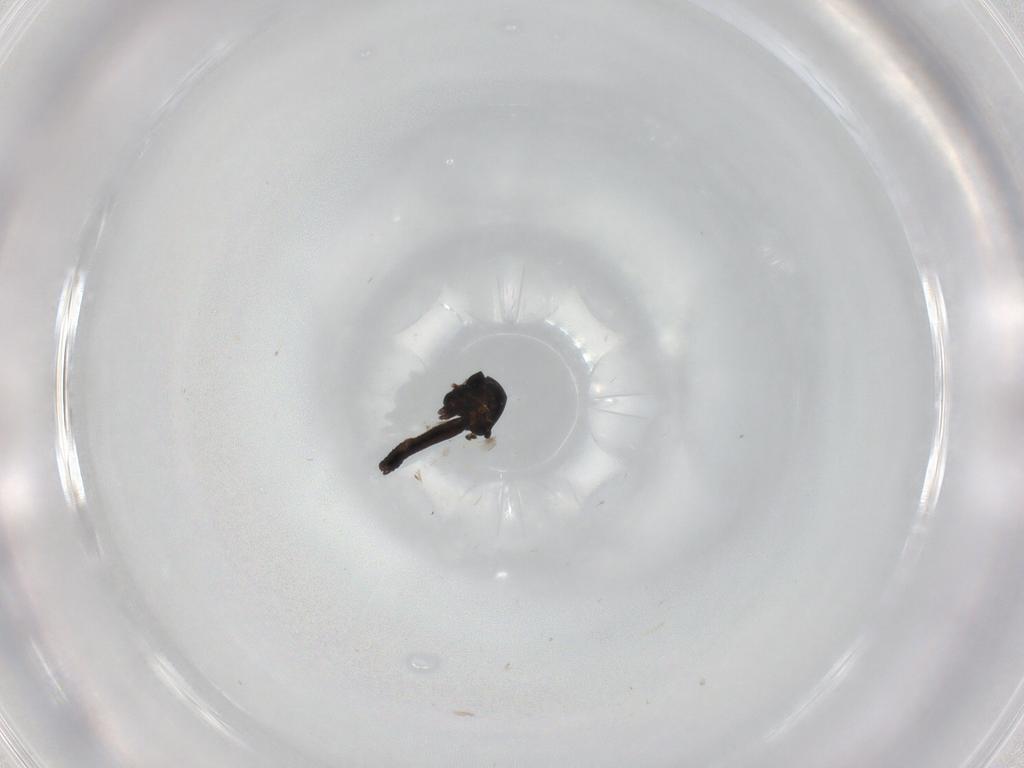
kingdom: Animalia
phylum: Arthropoda
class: Insecta
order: Diptera
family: Ceratopogonidae
